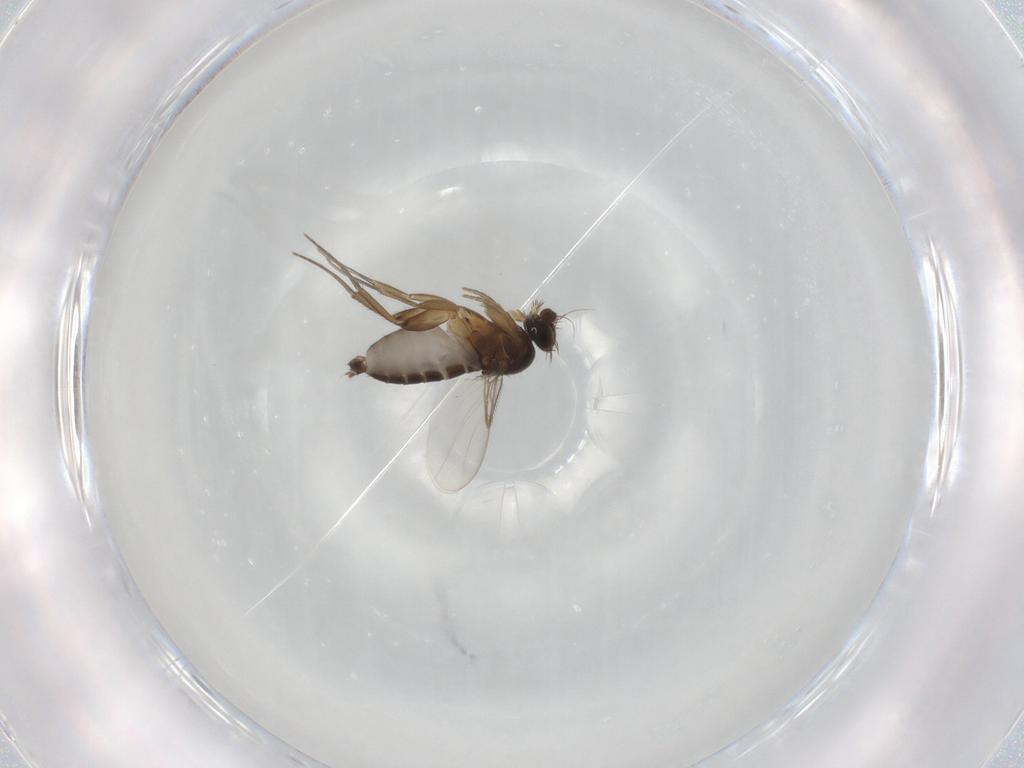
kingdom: Animalia
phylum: Arthropoda
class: Insecta
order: Diptera
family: Phoridae
